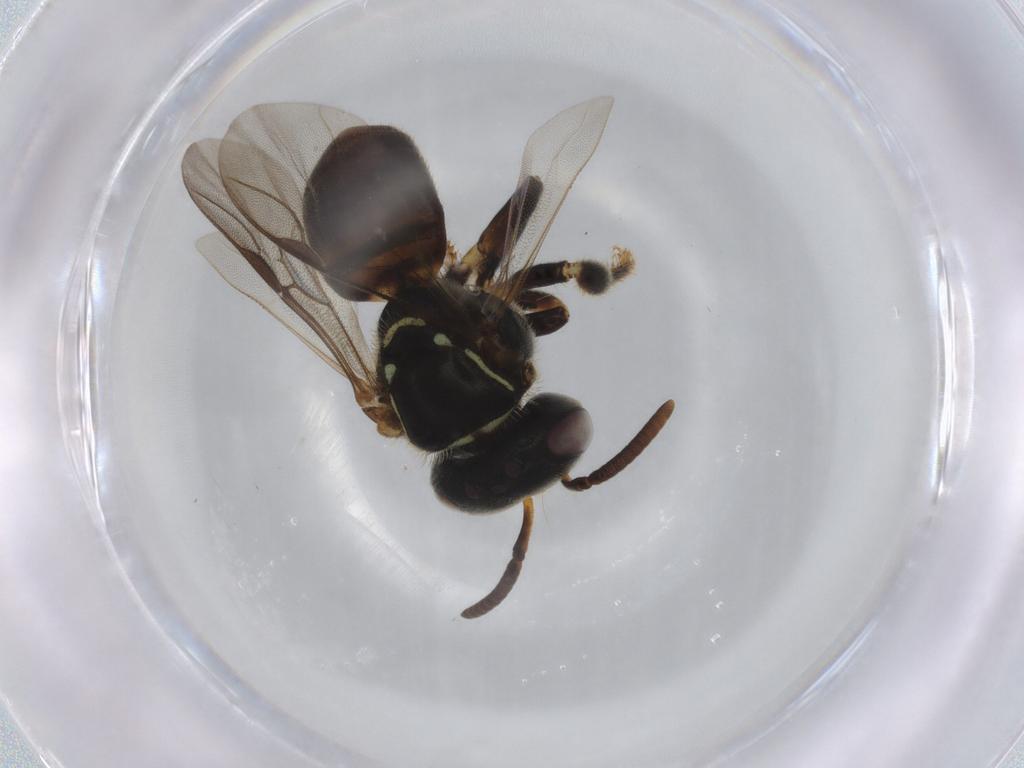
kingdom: Animalia
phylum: Arthropoda
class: Insecta
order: Hymenoptera
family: Apidae
